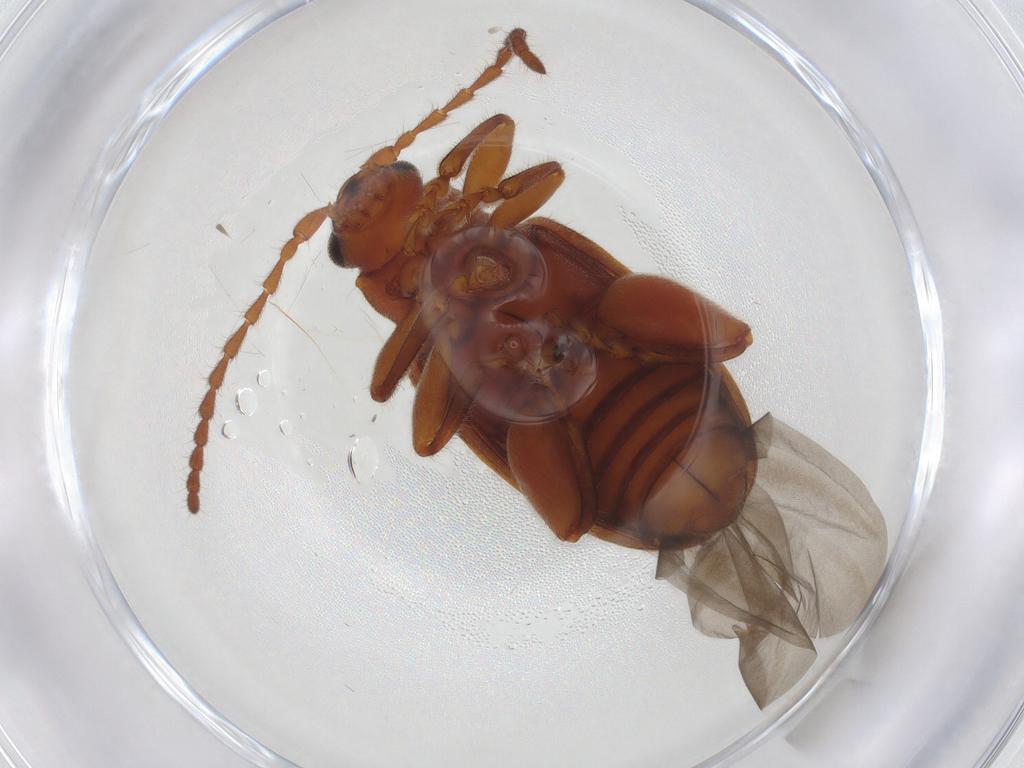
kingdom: Animalia
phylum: Arthropoda
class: Insecta
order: Coleoptera
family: Chrysomelidae
